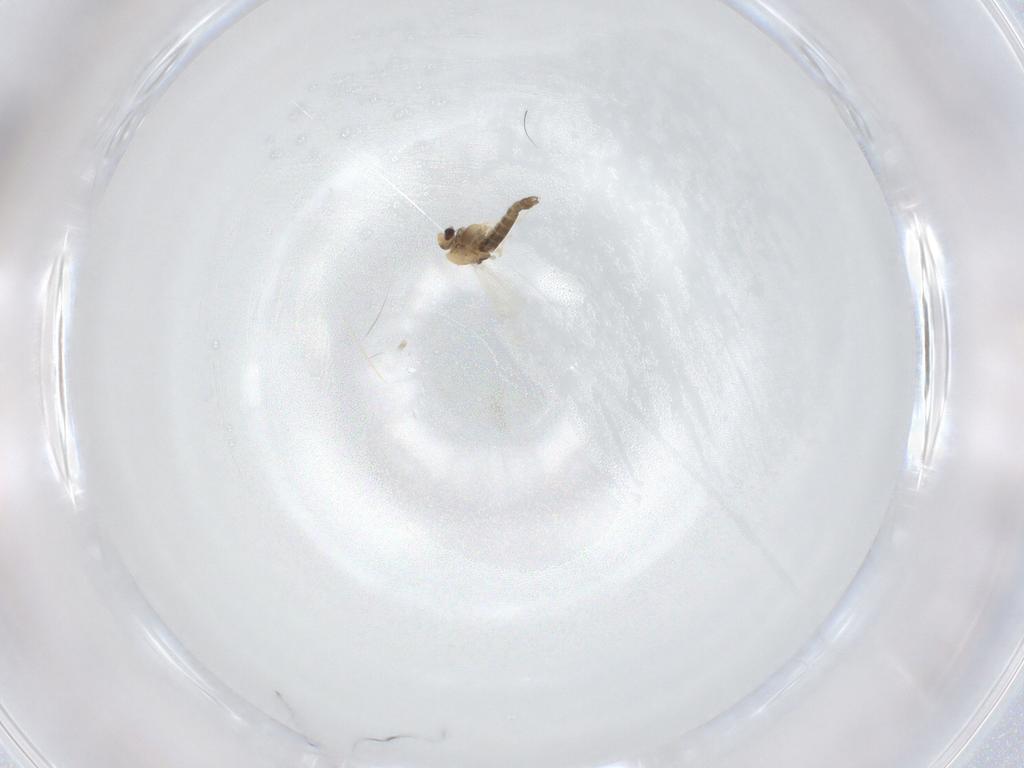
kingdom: Animalia
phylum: Arthropoda
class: Insecta
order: Diptera
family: Chironomidae
